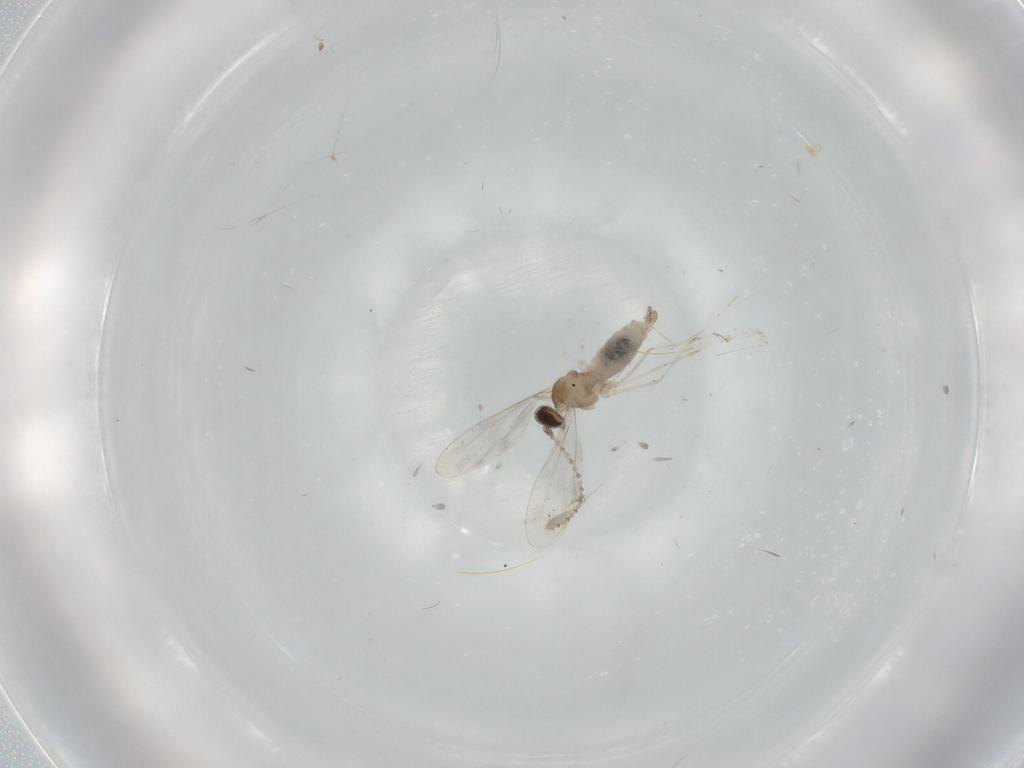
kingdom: Animalia
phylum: Arthropoda
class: Insecta
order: Diptera
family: Cecidomyiidae
